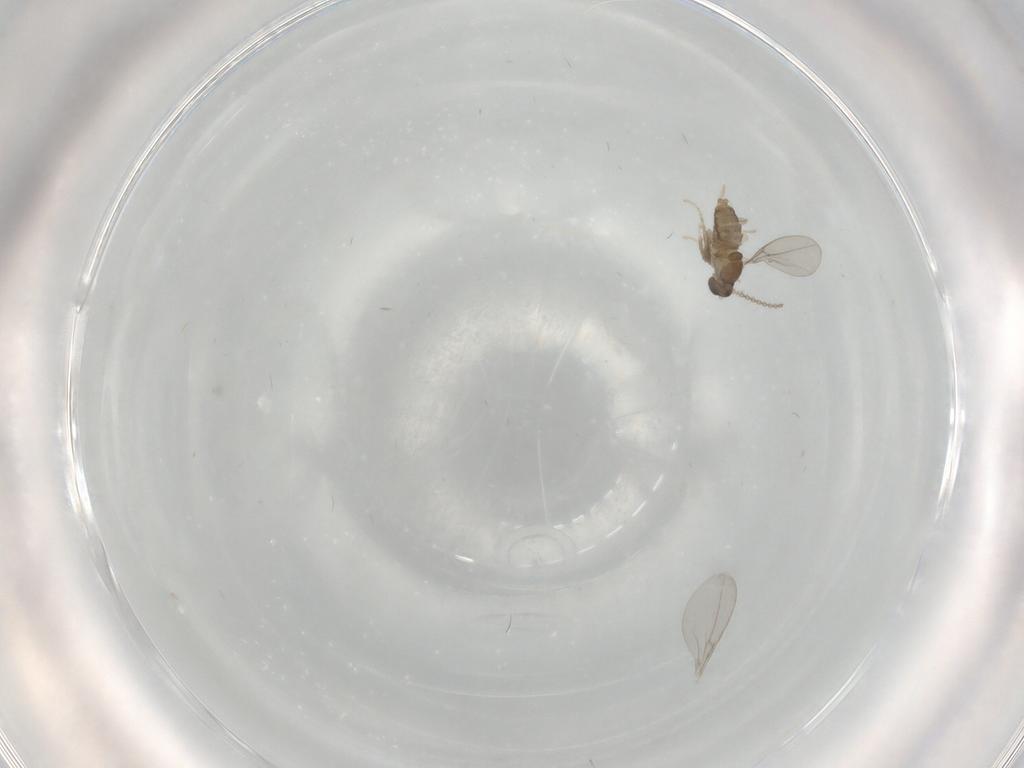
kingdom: Animalia
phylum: Arthropoda
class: Insecta
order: Diptera
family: Cecidomyiidae
